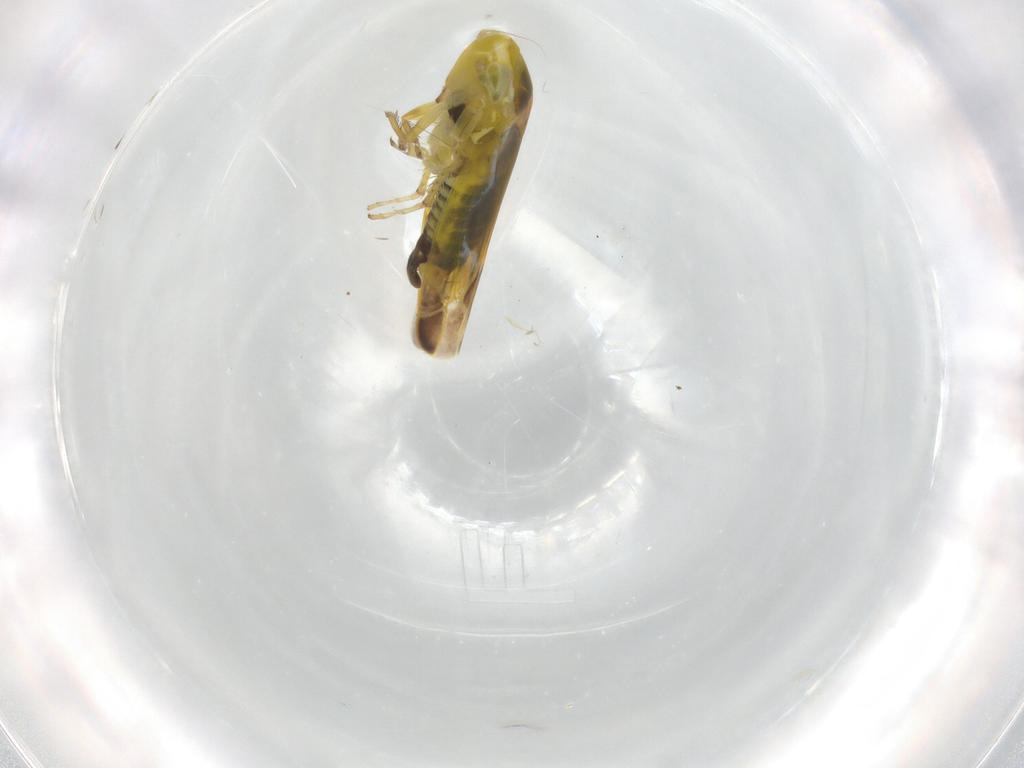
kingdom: Animalia
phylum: Arthropoda
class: Insecta
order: Hemiptera
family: Cicadellidae
